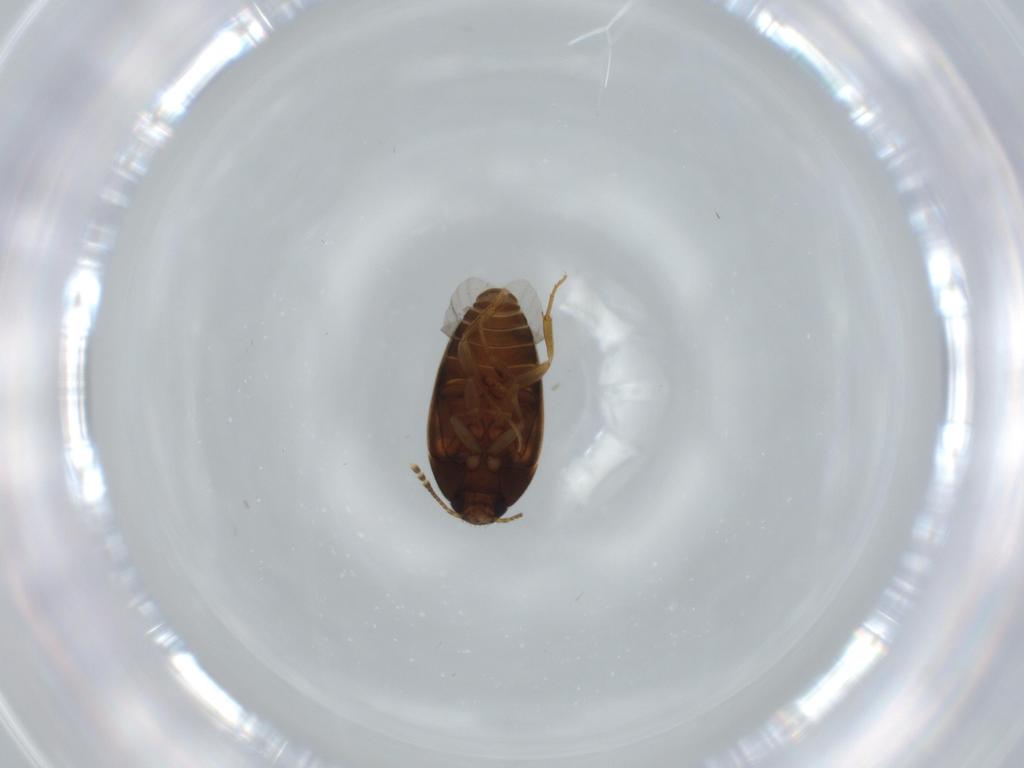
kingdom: Animalia
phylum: Arthropoda
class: Insecta
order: Coleoptera
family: Mycetophagidae
